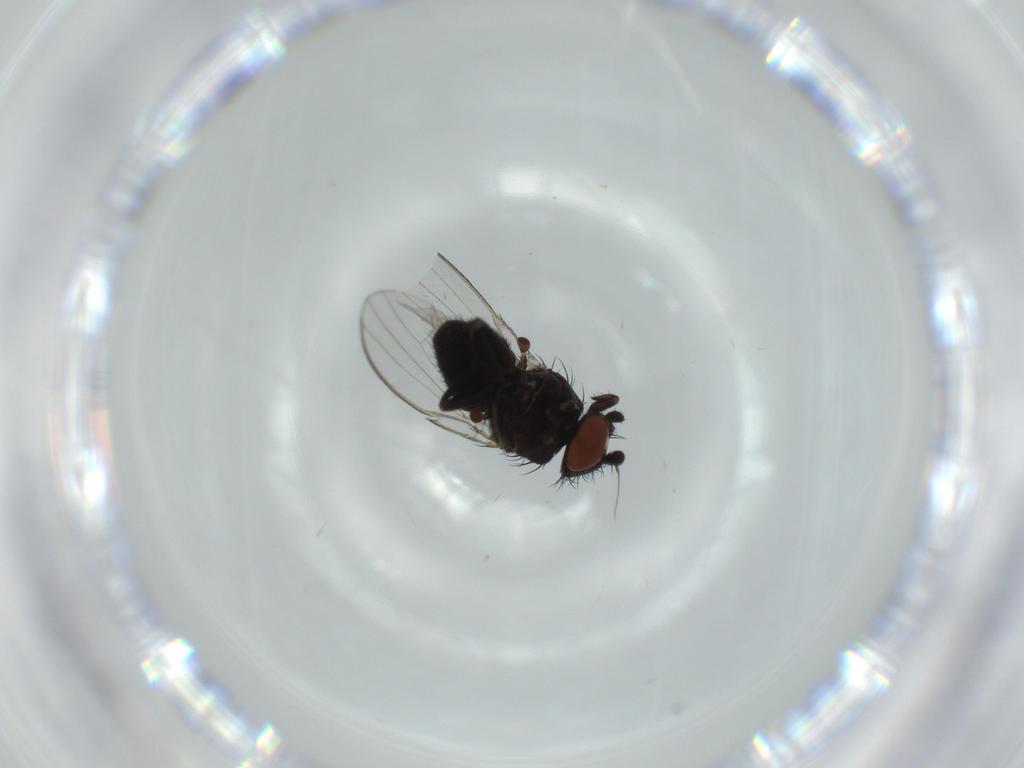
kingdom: Animalia
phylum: Arthropoda
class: Insecta
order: Diptera
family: Milichiidae
